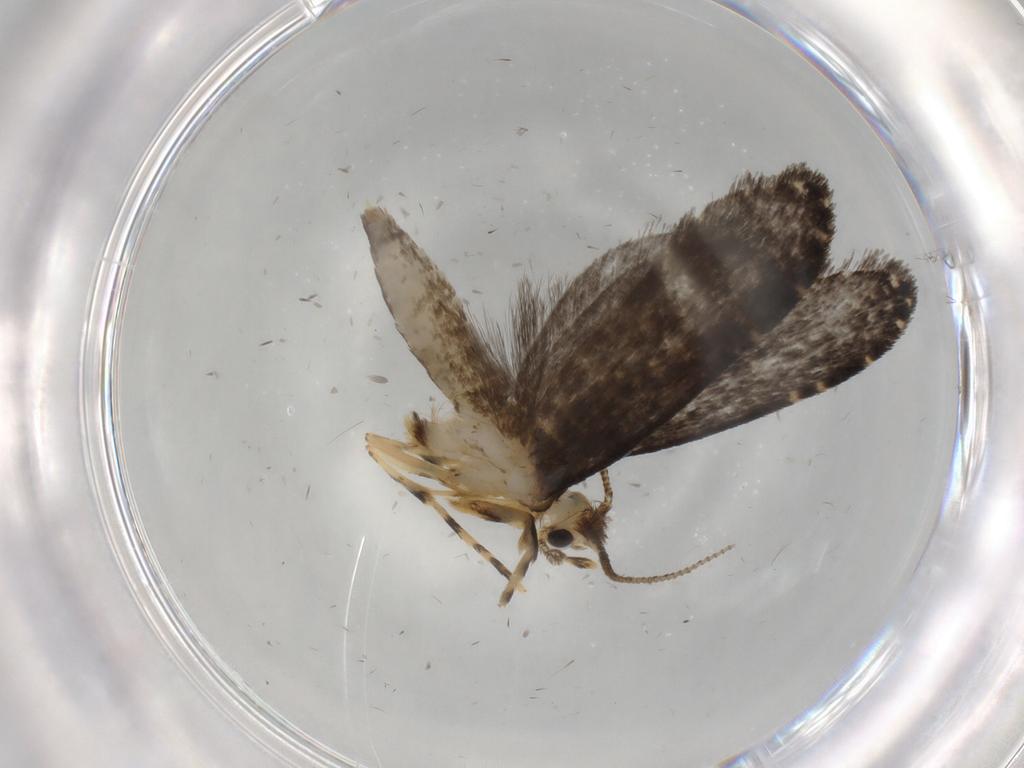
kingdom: Animalia
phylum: Arthropoda
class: Insecta
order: Lepidoptera
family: Tineidae
